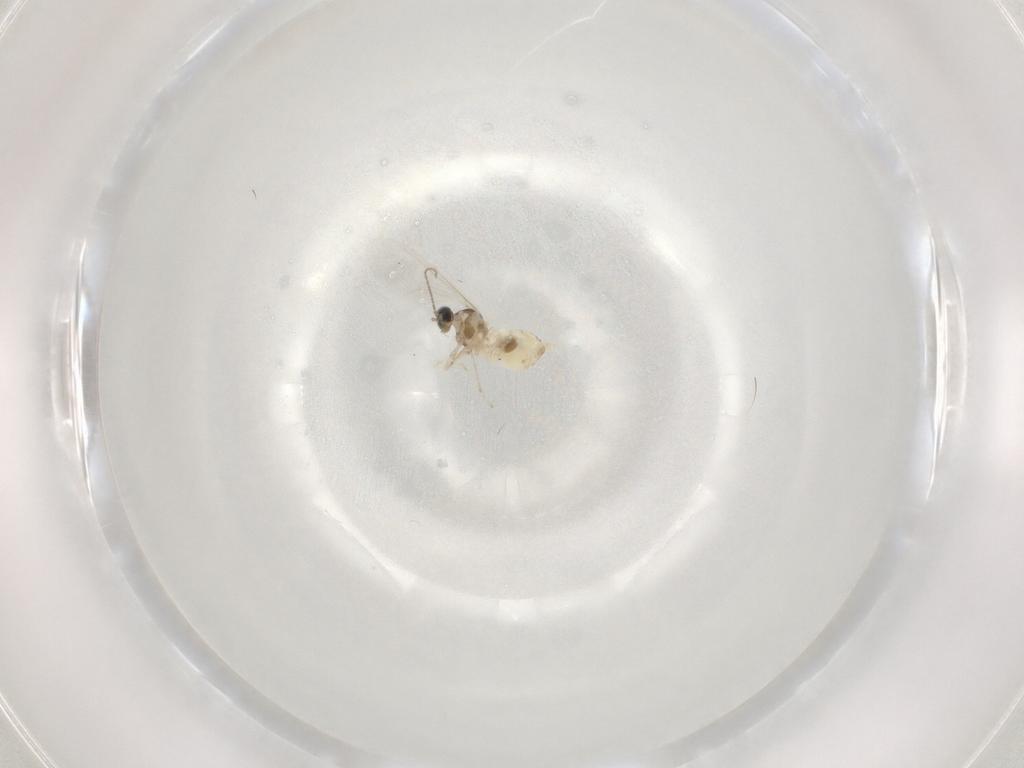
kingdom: Animalia
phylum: Arthropoda
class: Insecta
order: Diptera
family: Cecidomyiidae
